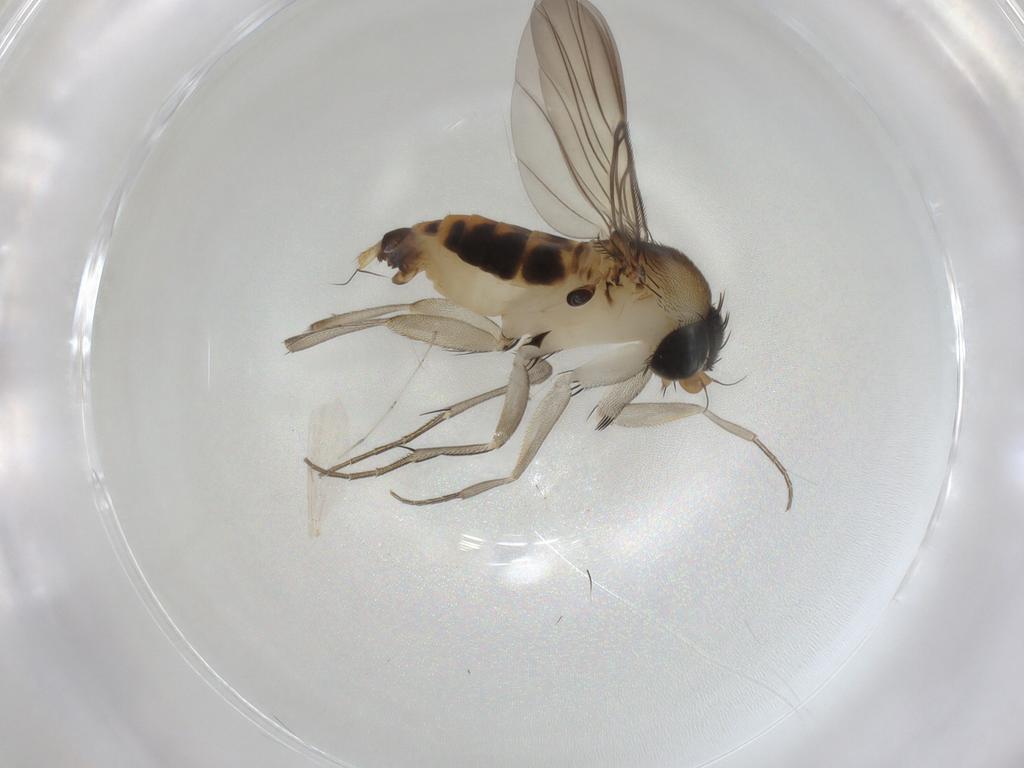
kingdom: Animalia
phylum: Arthropoda
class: Insecta
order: Diptera
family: Phoridae
